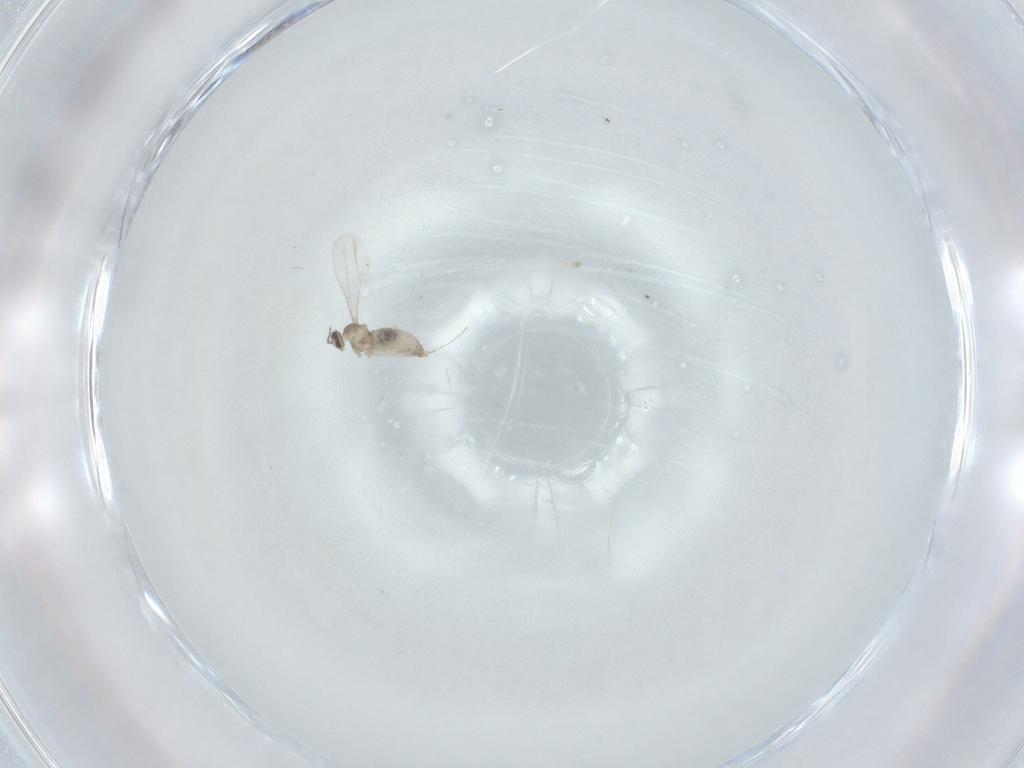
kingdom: Animalia
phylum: Arthropoda
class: Insecta
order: Diptera
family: Cecidomyiidae
